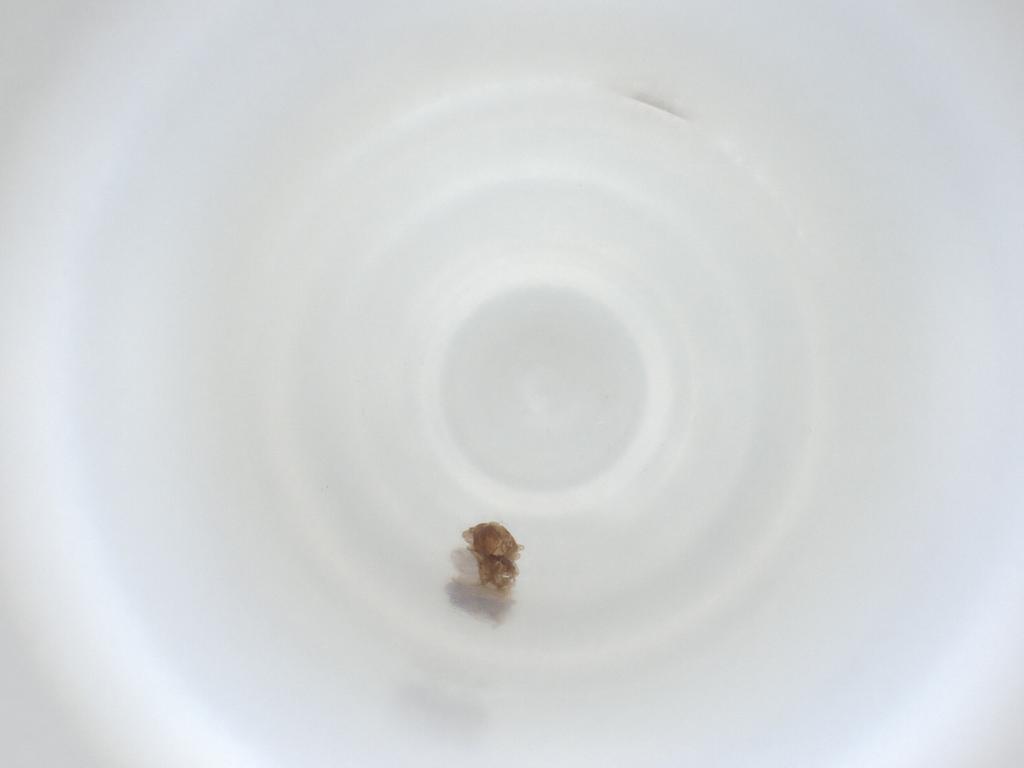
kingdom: Animalia
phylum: Arthropoda
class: Insecta
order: Diptera
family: Cecidomyiidae
